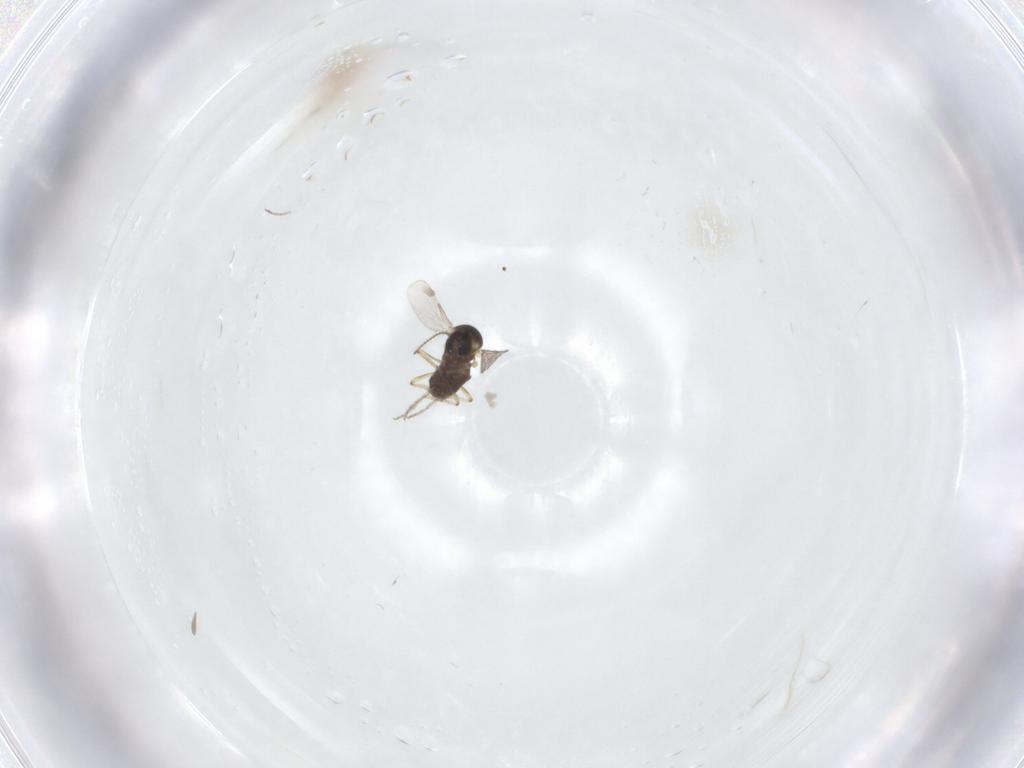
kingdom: Animalia
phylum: Arthropoda
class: Insecta
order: Diptera
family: Ceratopogonidae
